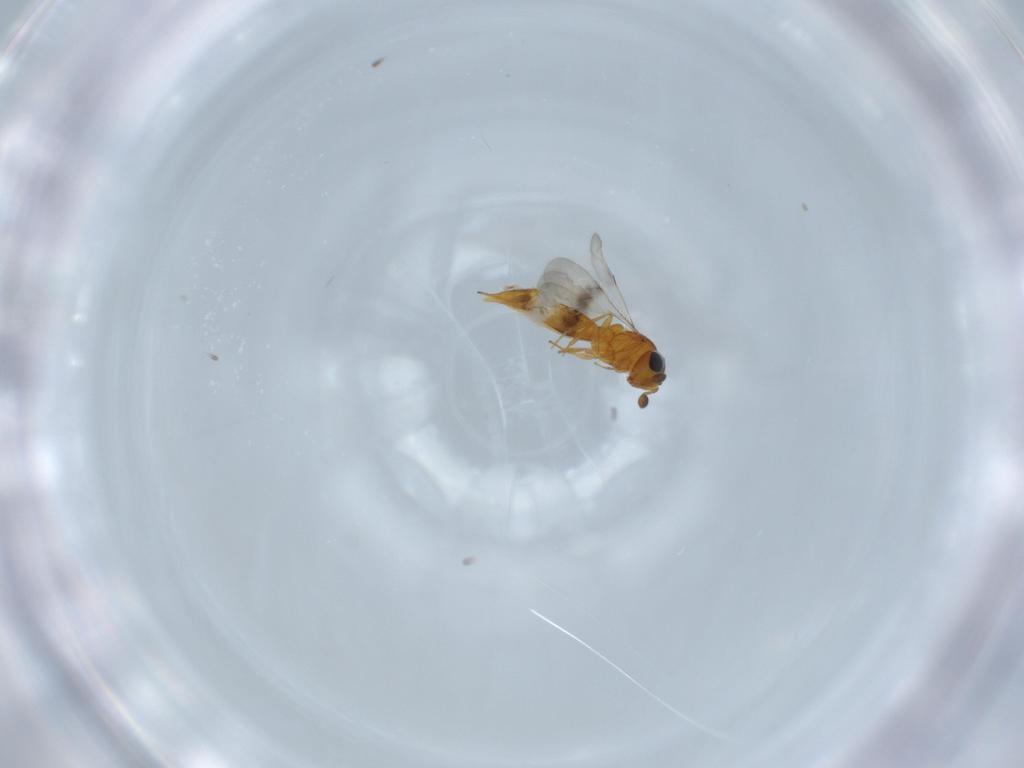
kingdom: Animalia
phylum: Arthropoda
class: Insecta
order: Hymenoptera
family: Scelionidae
